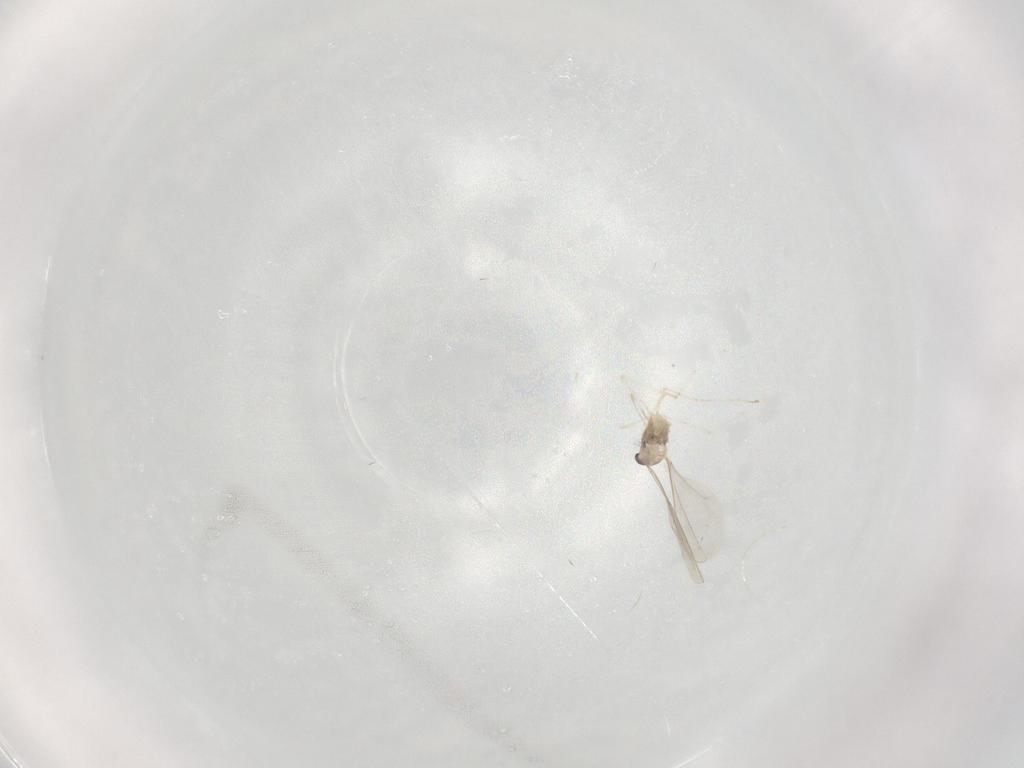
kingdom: Animalia
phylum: Arthropoda
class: Insecta
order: Diptera
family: Cecidomyiidae
